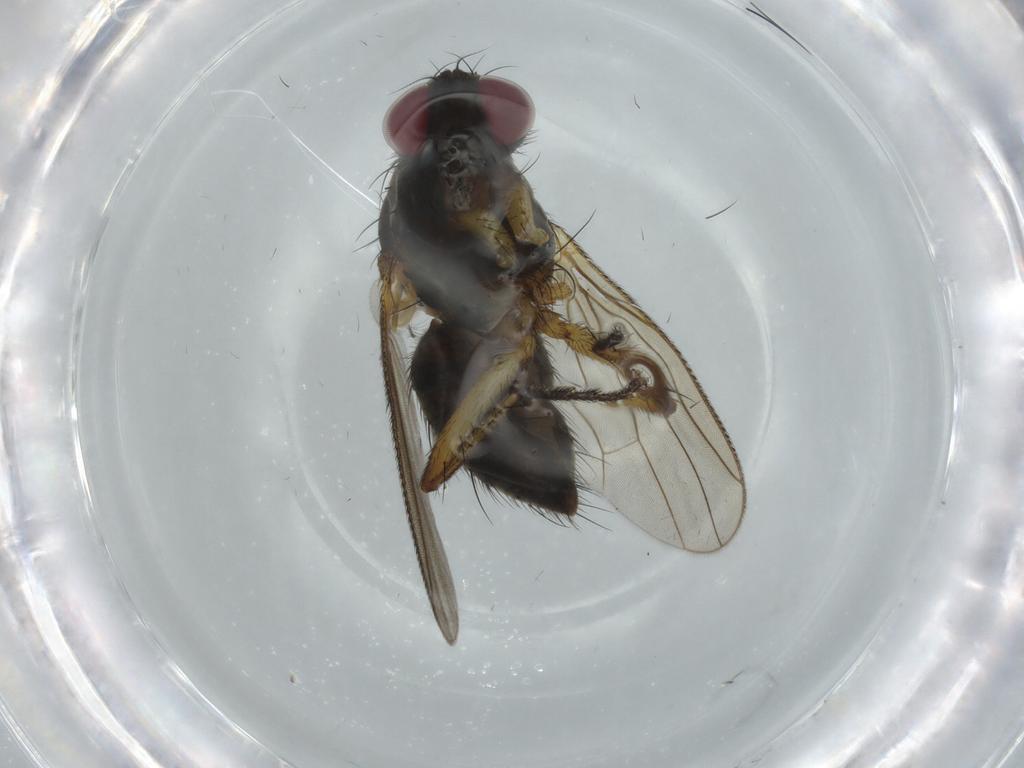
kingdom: Animalia
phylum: Arthropoda
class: Insecta
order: Diptera
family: Muscidae
